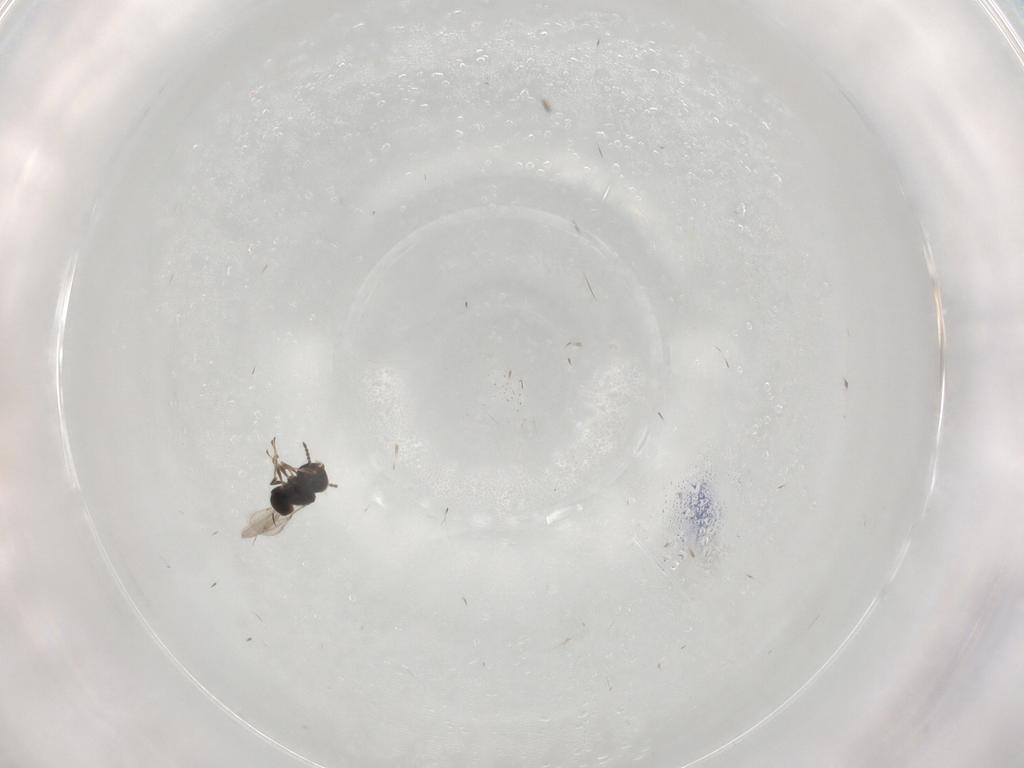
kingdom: Animalia
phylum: Arthropoda
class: Insecta
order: Hymenoptera
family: Scelionidae
